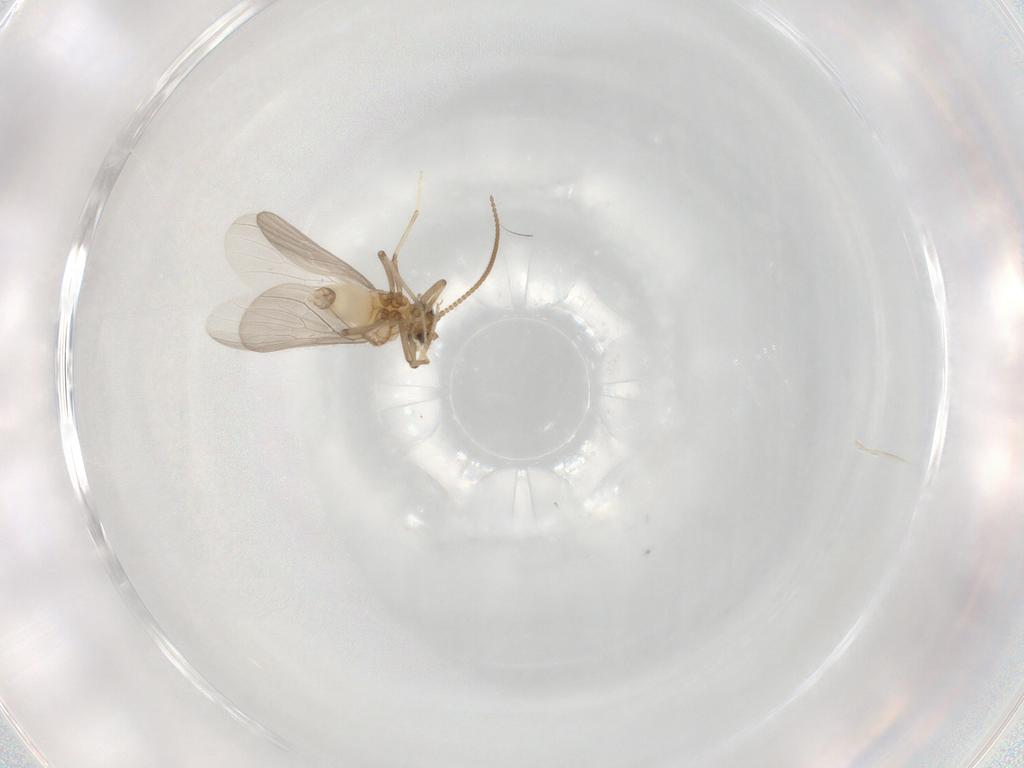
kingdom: Animalia
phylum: Arthropoda
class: Insecta
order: Neuroptera
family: Coniopterygidae
